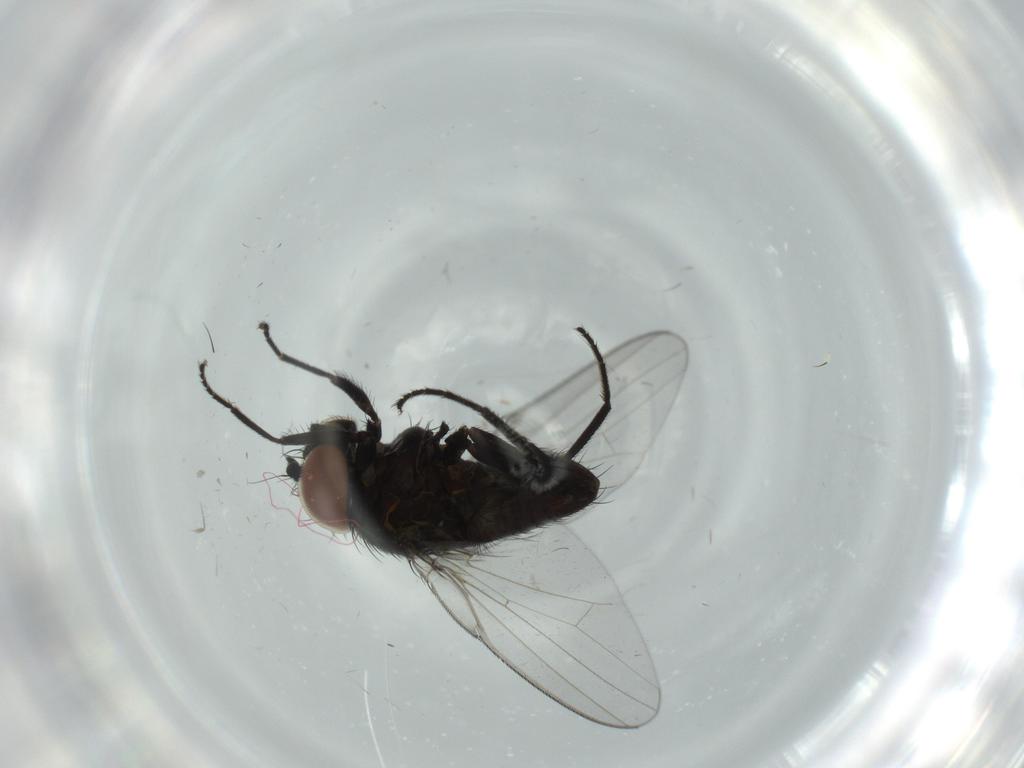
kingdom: Animalia
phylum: Arthropoda
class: Insecta
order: Diptera
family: Milichiidae
